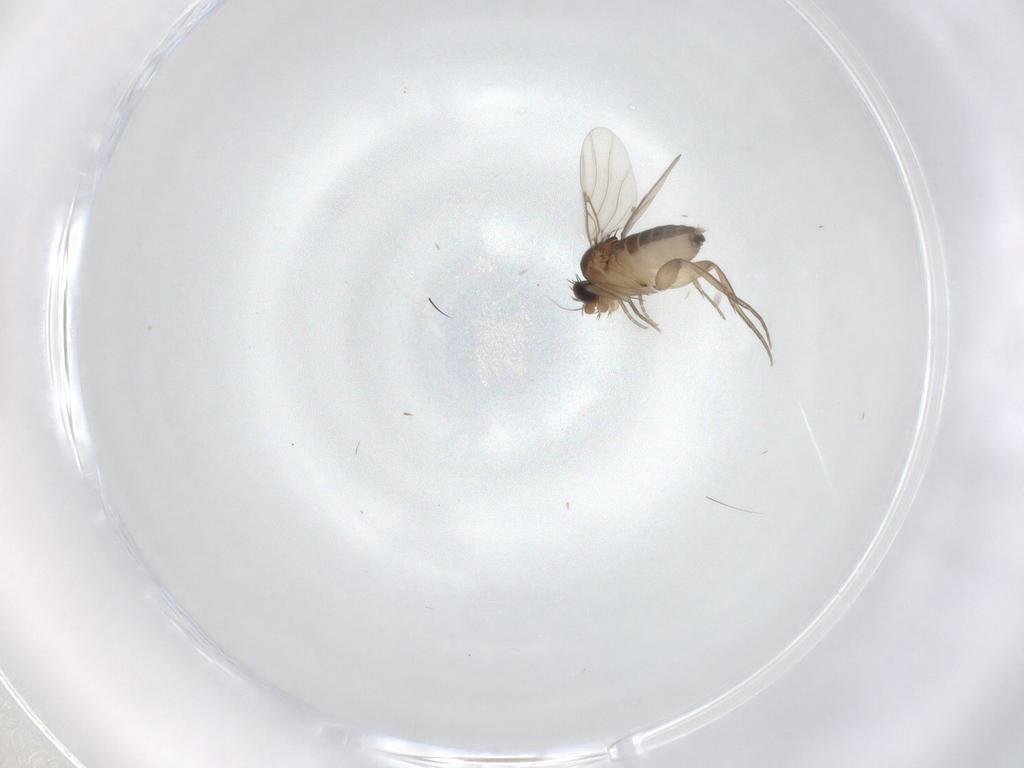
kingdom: Animalia
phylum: Arthropoda
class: Insecta
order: Diptera
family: Phoridae
